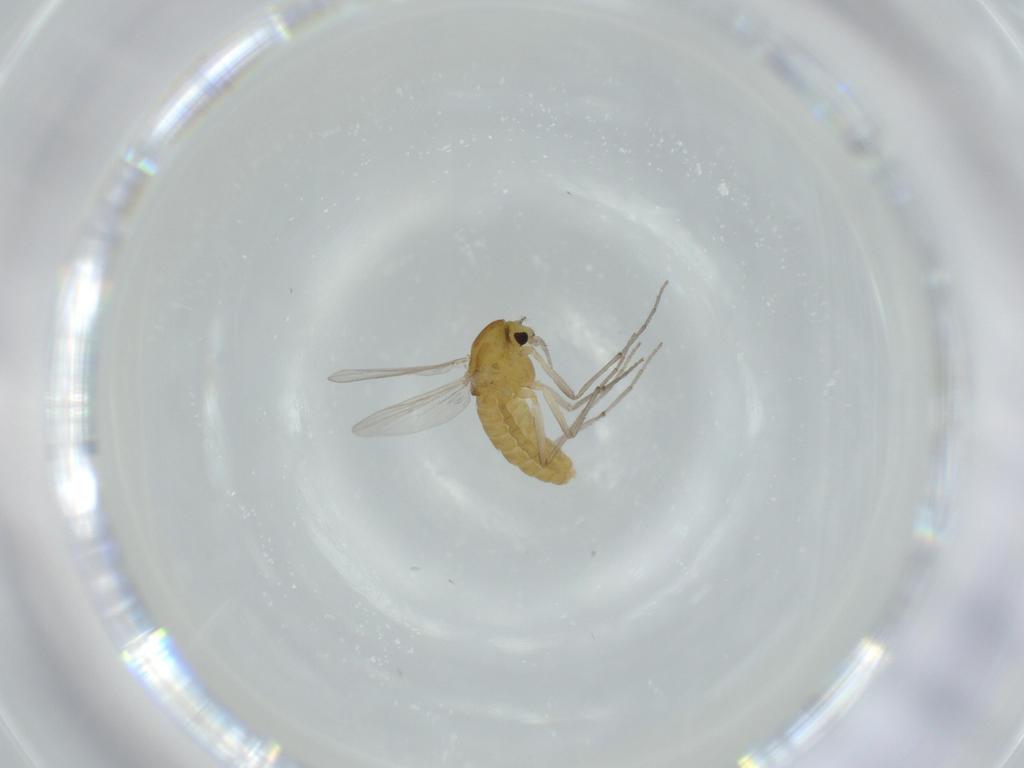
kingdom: Animalia
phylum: Arthropoda
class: Insecta
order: Diptera
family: Chironomidae
